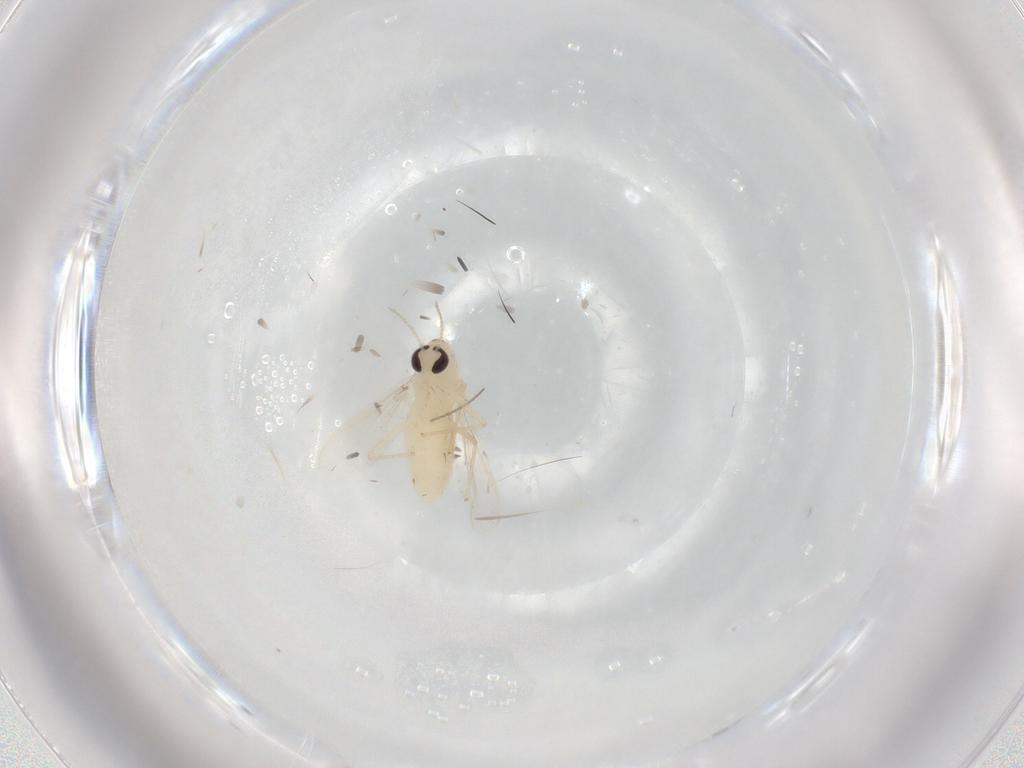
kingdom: Animalia
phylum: Arthropoda
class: Insecta
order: Diptera
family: Chironomidae
